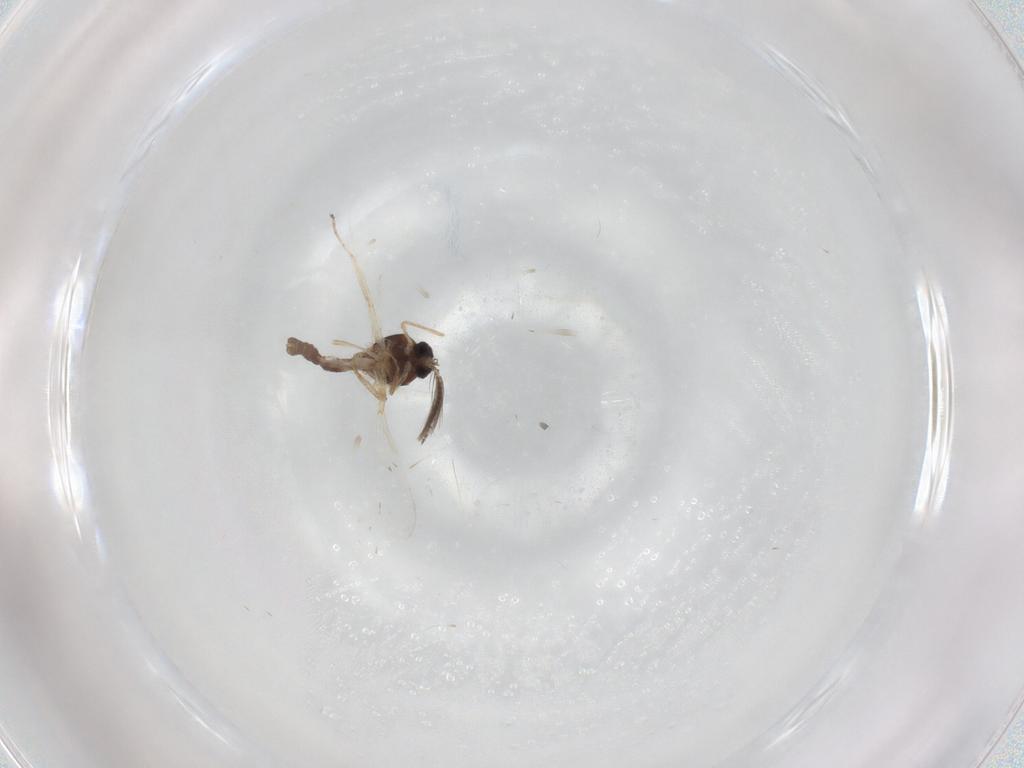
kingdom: Animalia
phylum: Arthropoda
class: Insecta
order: Diptera
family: Ceratopogonidae
